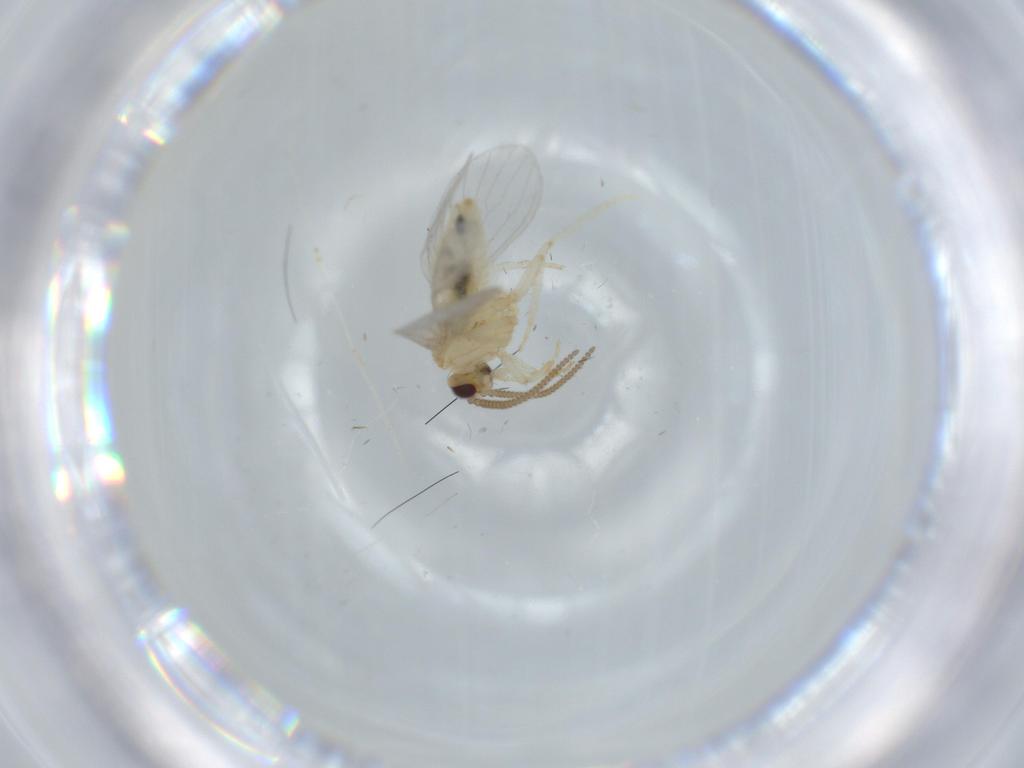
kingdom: Animalia
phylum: Arthropoda
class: Insecta
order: Neuroptera
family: Coniopterygidae
